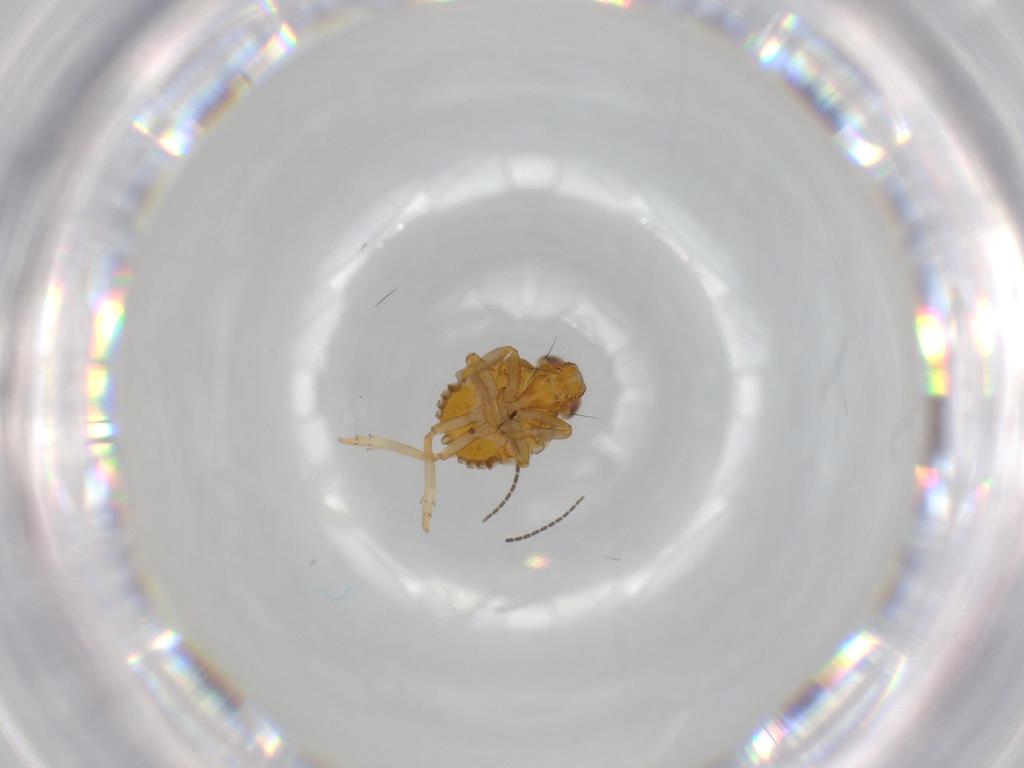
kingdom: Animalia
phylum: Arthropoda
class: Insecta
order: Hemiptera
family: Issidae
